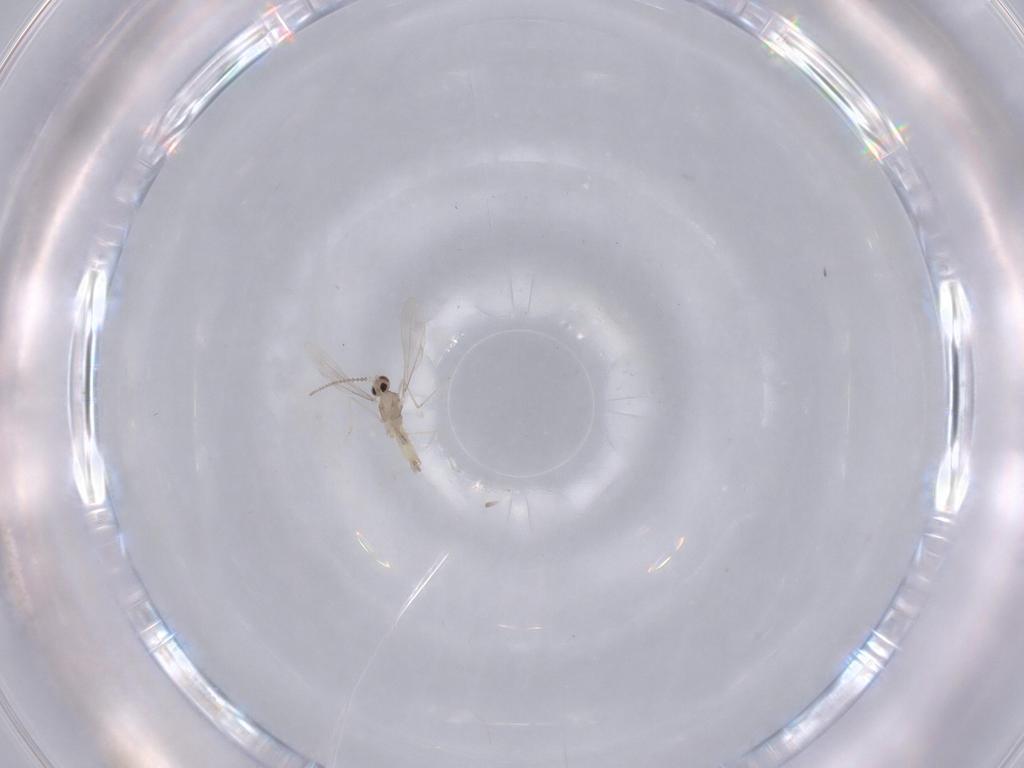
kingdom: Animalia
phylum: Arthropoda
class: Insecta
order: Diptera
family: Cecidomyiidae
